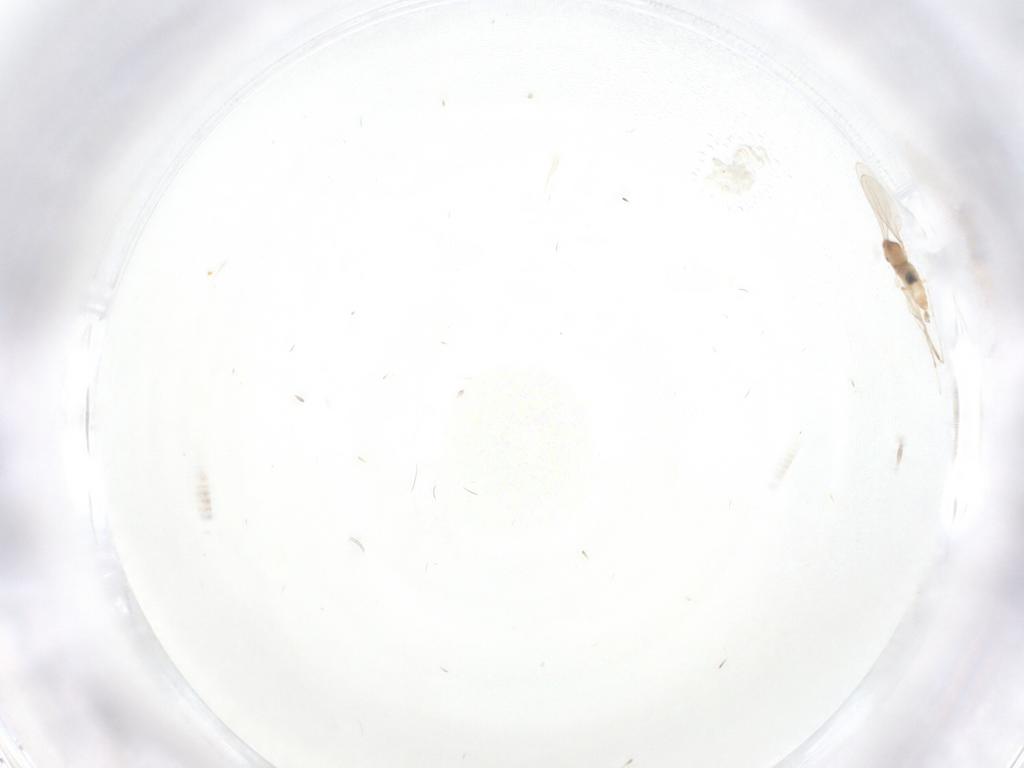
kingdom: Animalia
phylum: Arthropoda
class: Insecta
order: Diptera
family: Cecidomyiidae
